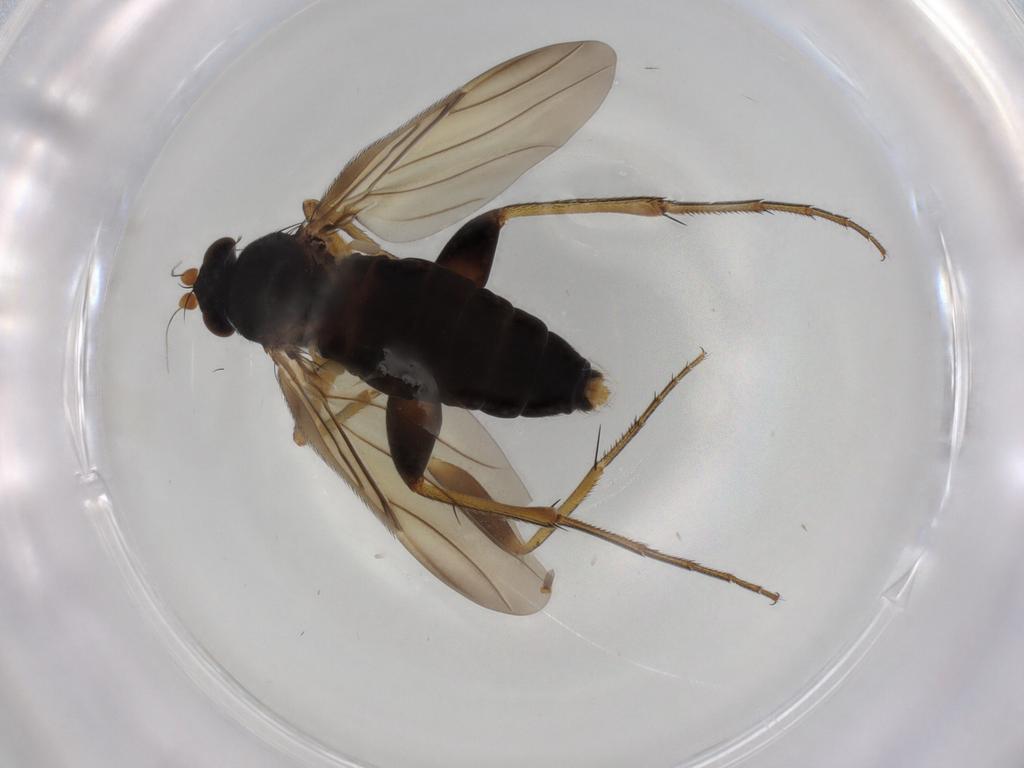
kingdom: Animalia
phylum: Arthropoda
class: Insecta
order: Diptera
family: Phoridae
